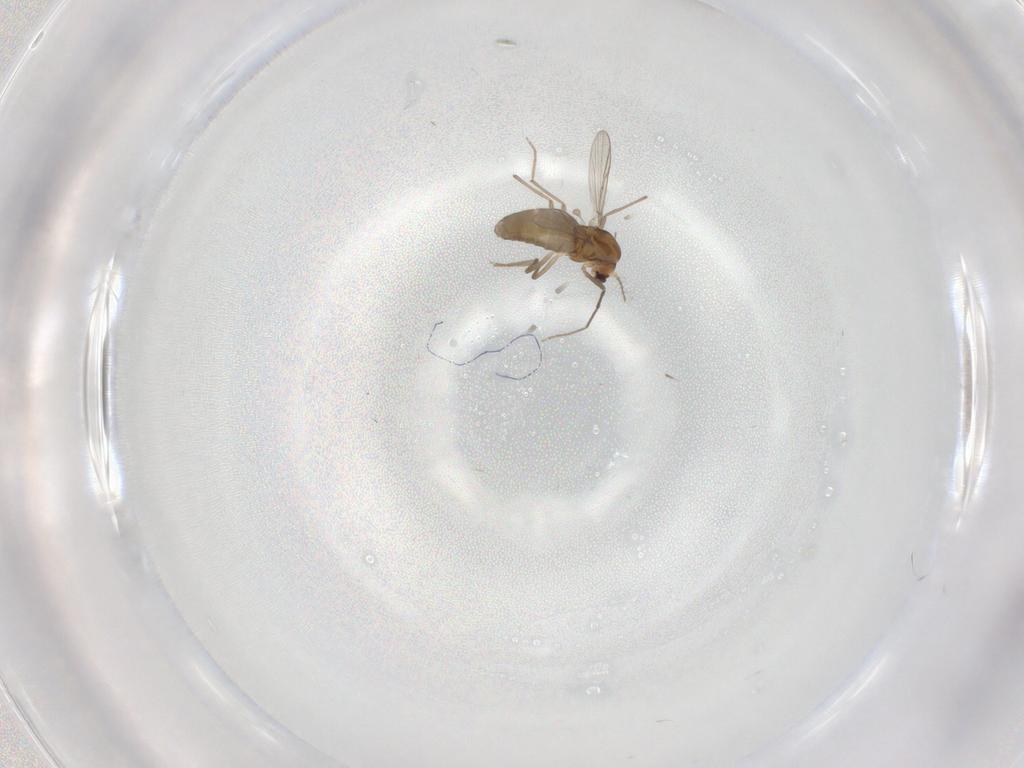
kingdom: Animalia
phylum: Arthropoda
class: Insecta
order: Diptera
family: Chironomidae
